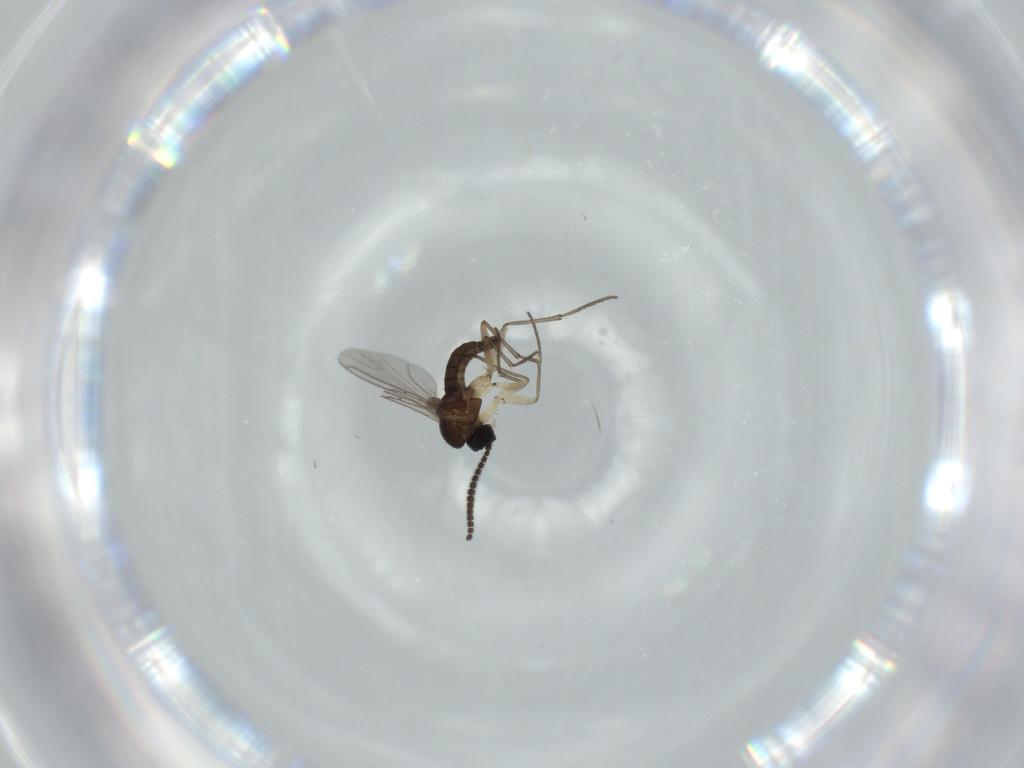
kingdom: Animalia
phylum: Arthropoda
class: Insecta
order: Diptera
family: Sciaridae
